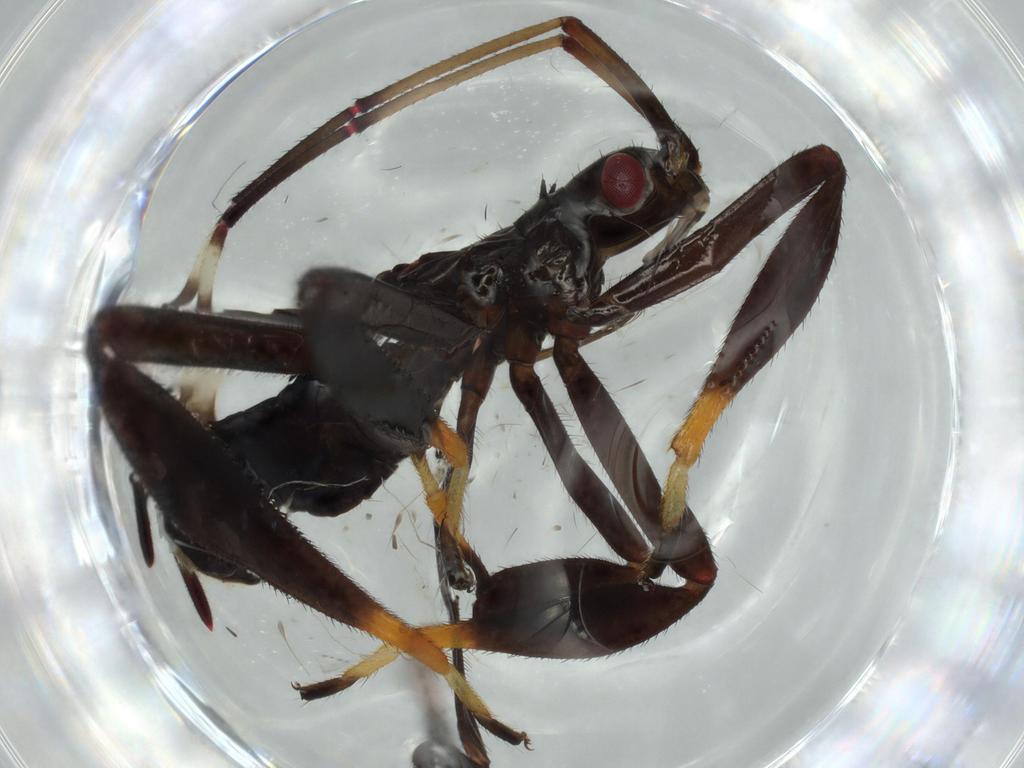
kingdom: Animalia
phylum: Arthropoda
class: Insecta
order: Hemiptera
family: Coreidae
